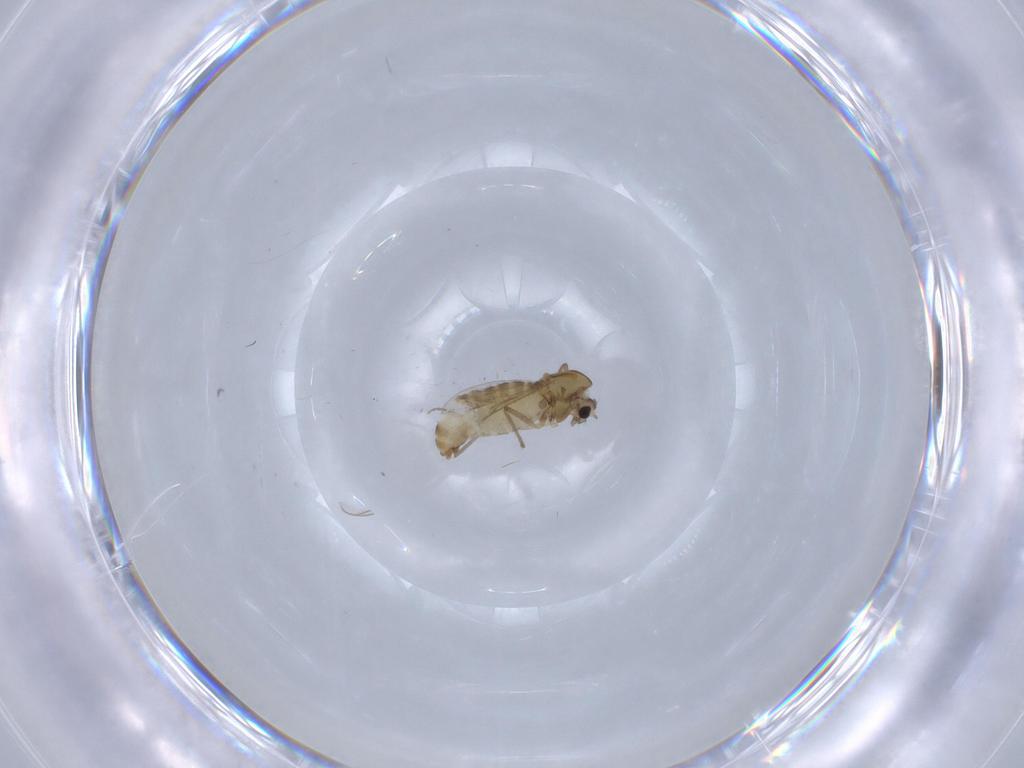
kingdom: Animalia
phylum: Arthropoda
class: Insecta
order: Diptera
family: Chironomidae
